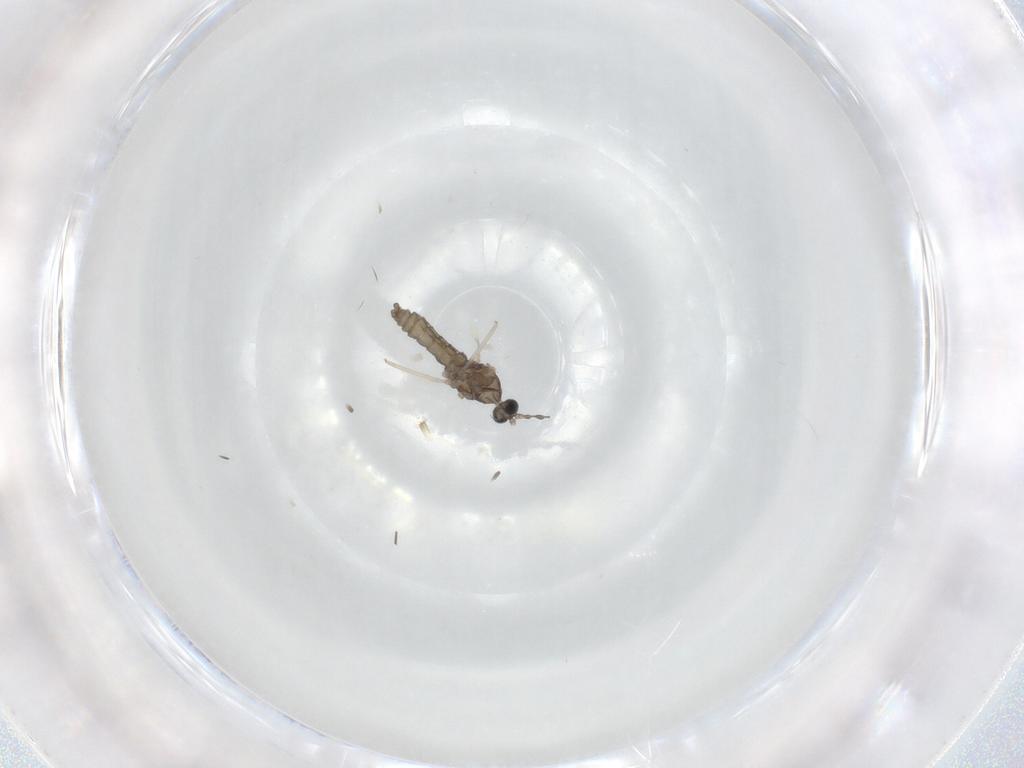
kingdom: Animalia
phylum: Arthropoda
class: Insecta
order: Diptera
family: Cecidomyiidae
